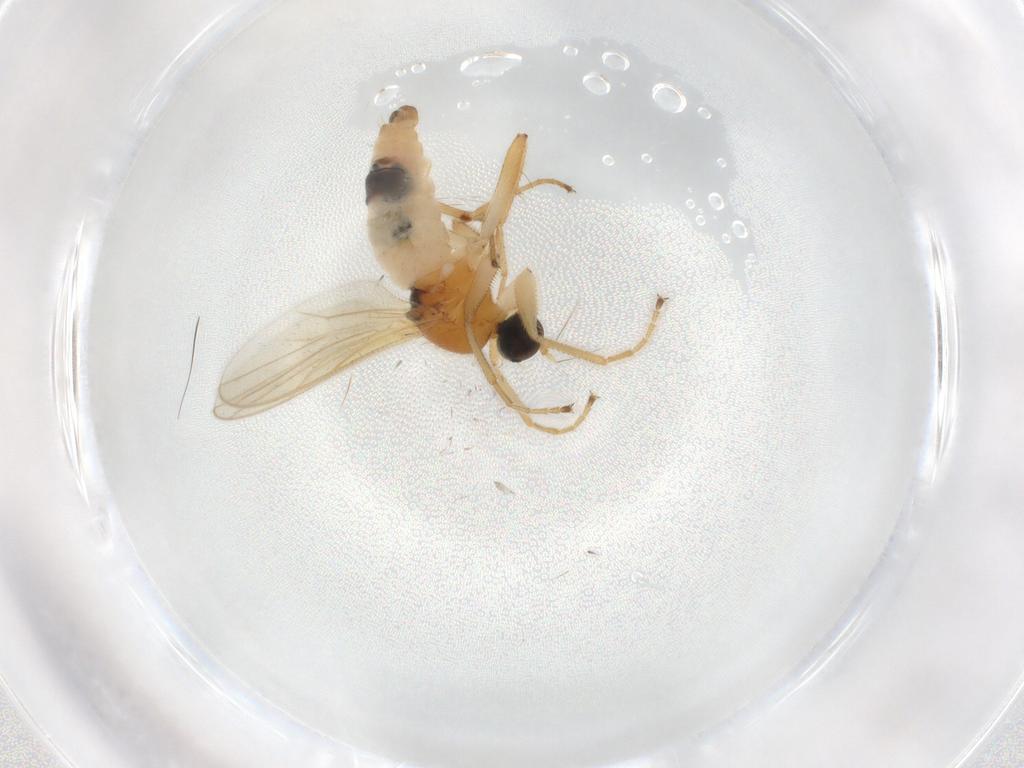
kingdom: Animalia
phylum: Arthropoda
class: Insecta
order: Diptera
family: Hybotidae
